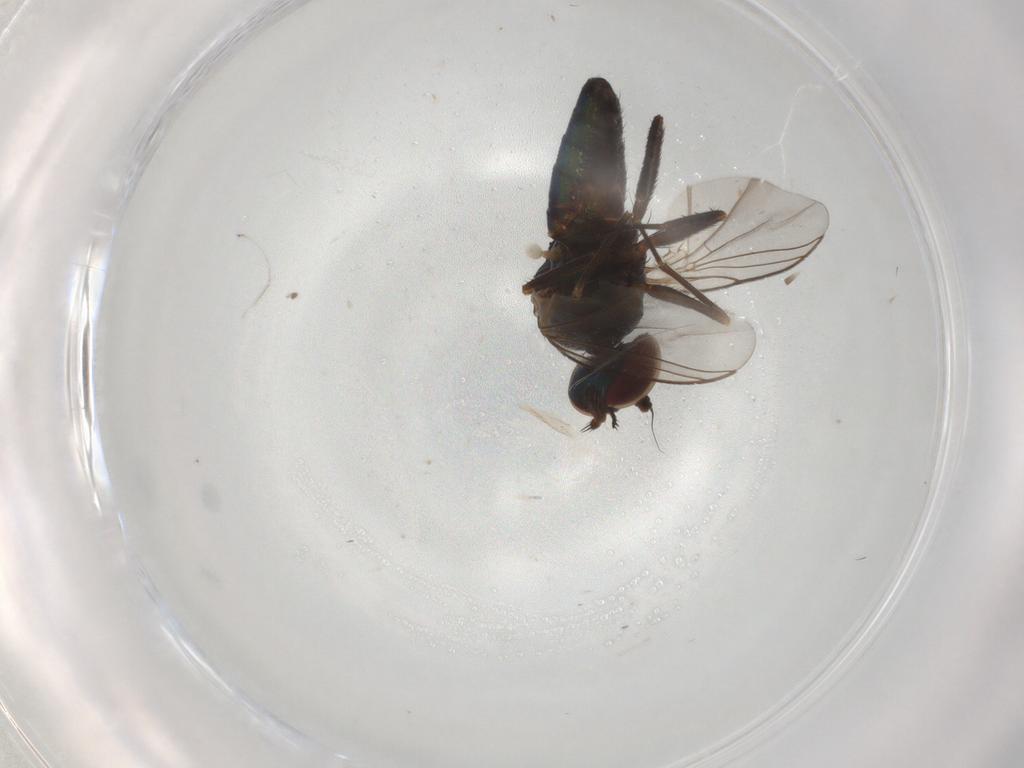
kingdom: Animalia
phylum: Arthropoda
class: Insecta
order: Diptera
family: Dolichopodidae
